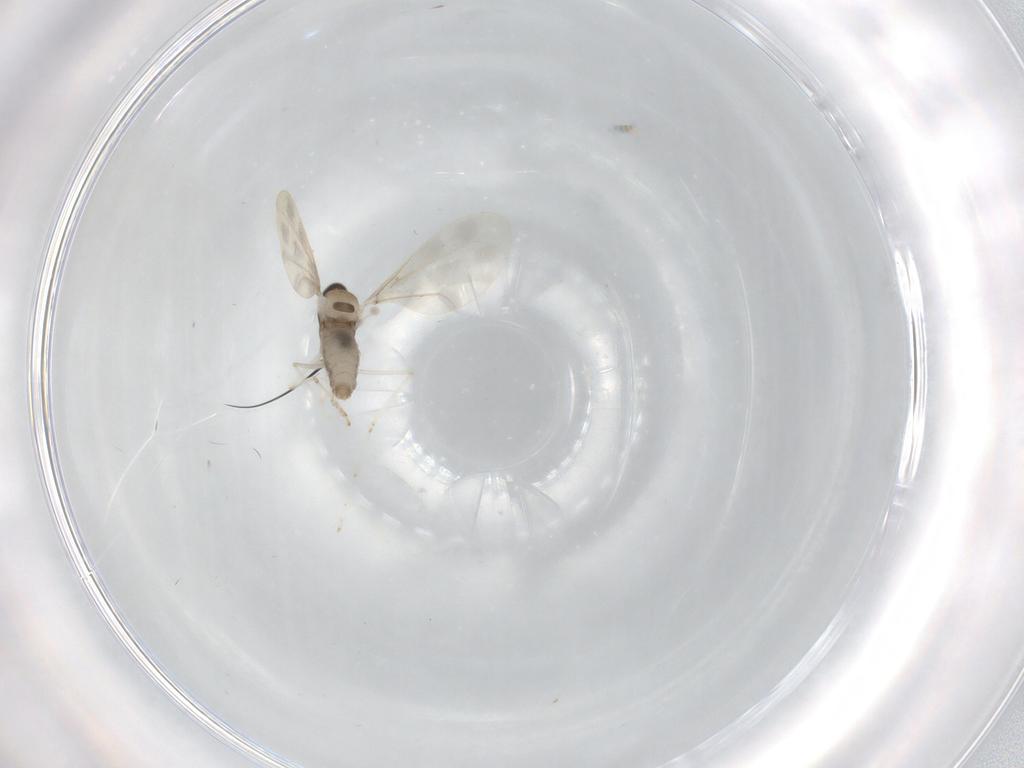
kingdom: Animalia
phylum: Arthropoda
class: Insecta
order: Diptera
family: Cecidomyiidae
